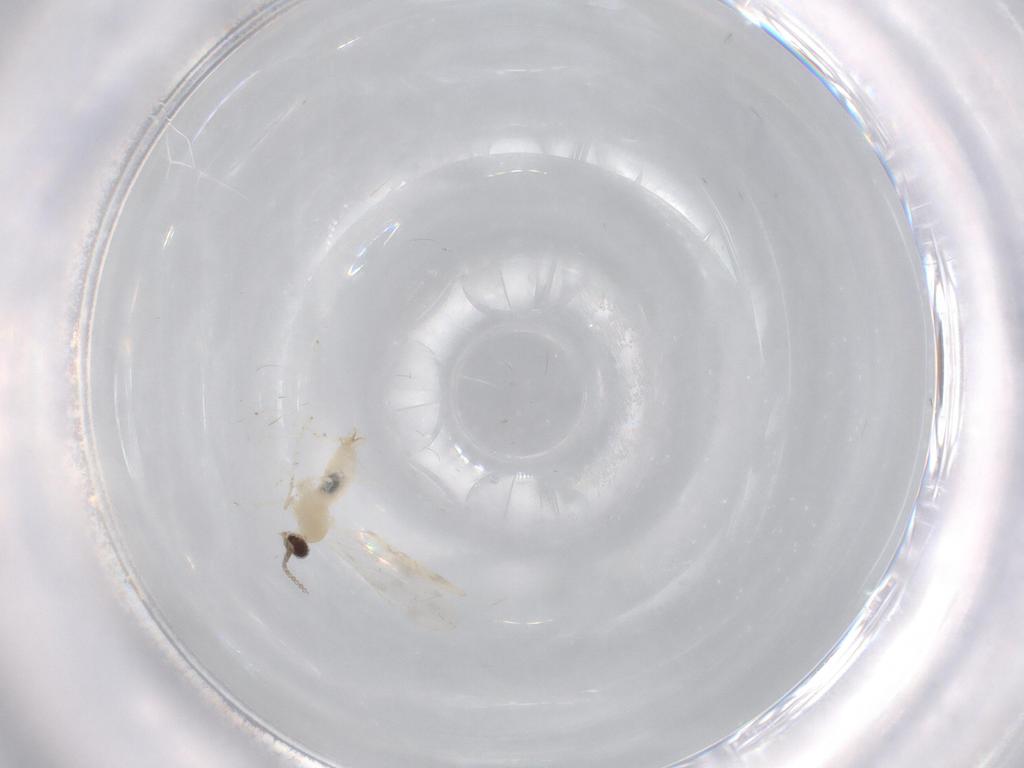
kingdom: Animalia
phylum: Arthropoda
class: Insecta
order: Diptera
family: Cecidomyiidae
